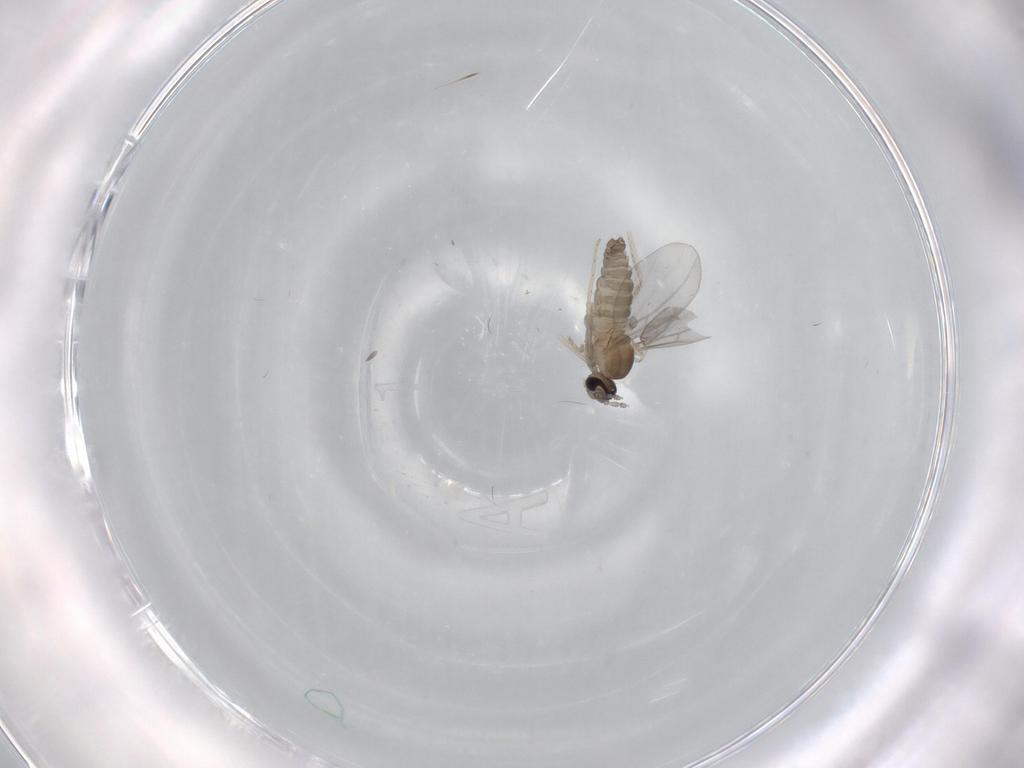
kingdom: Animalia
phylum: Arthropoda
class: Insecta
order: Diptera
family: Cecidomyiidae
